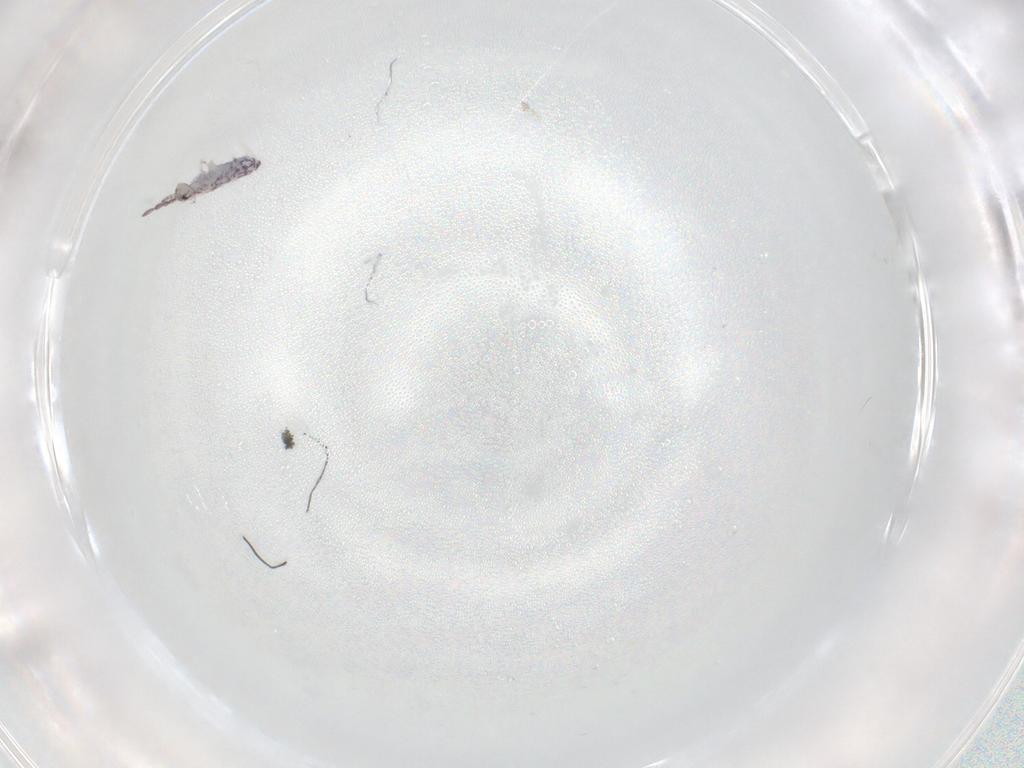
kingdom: Animalia
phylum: Arthropoda
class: Collembola
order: Entomobryomorpha
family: Entomobryidae
